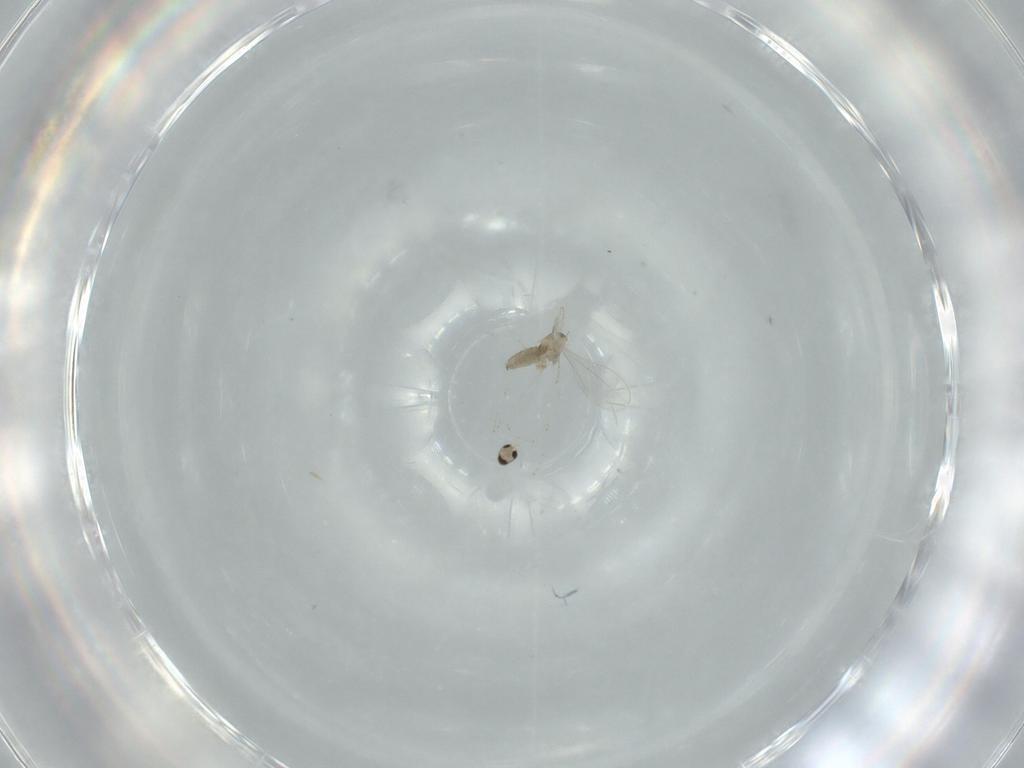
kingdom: Animalia
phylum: Arthropoda
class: Insecta
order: Diptera
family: Cecidomyiidae
